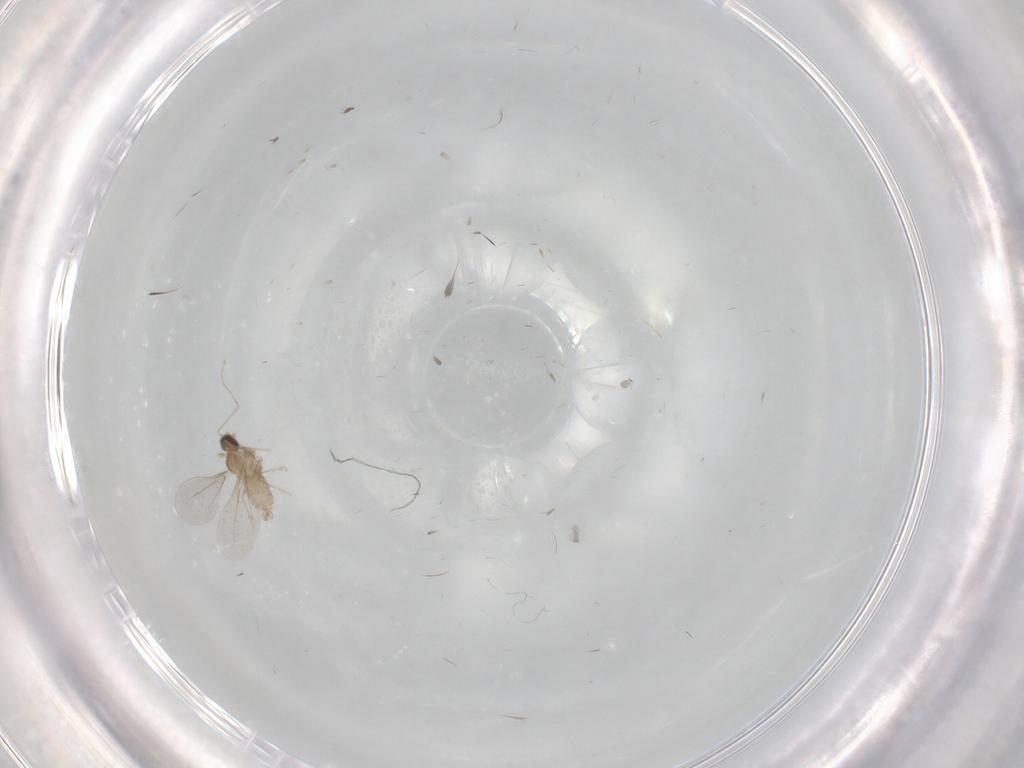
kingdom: Animalia
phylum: Arthropoda
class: Insecta
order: Diptera
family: Cecidomyiidae
